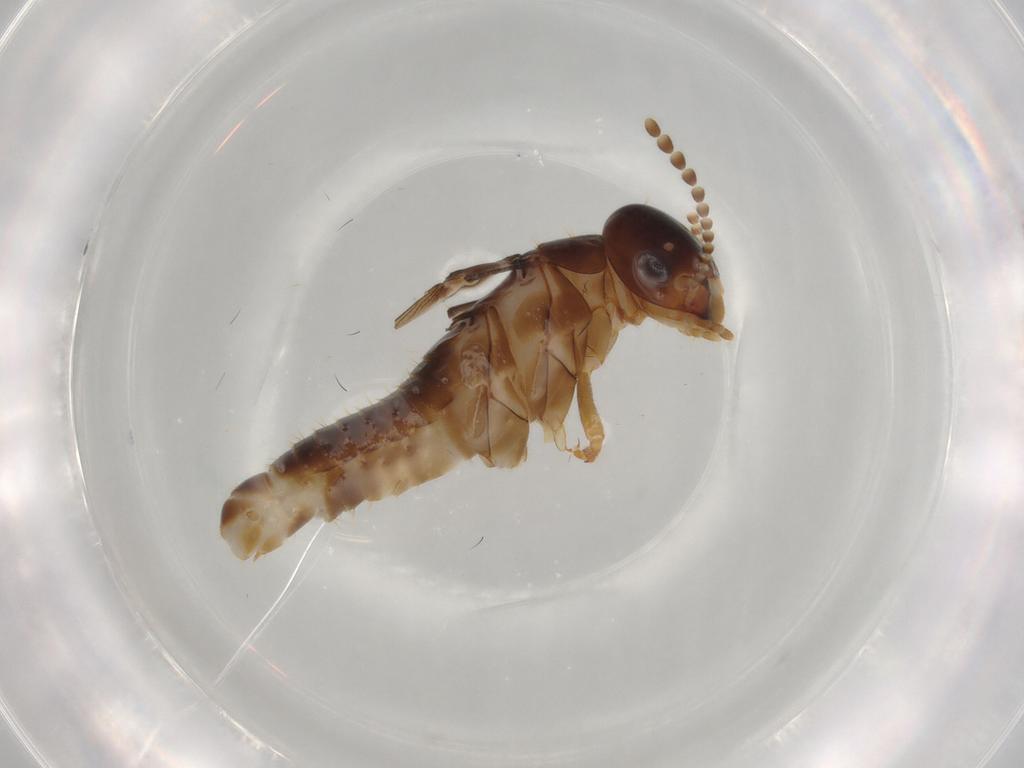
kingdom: Animalia
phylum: Arthropoda
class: Insecta
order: Blattodea
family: Kalotermitidae
